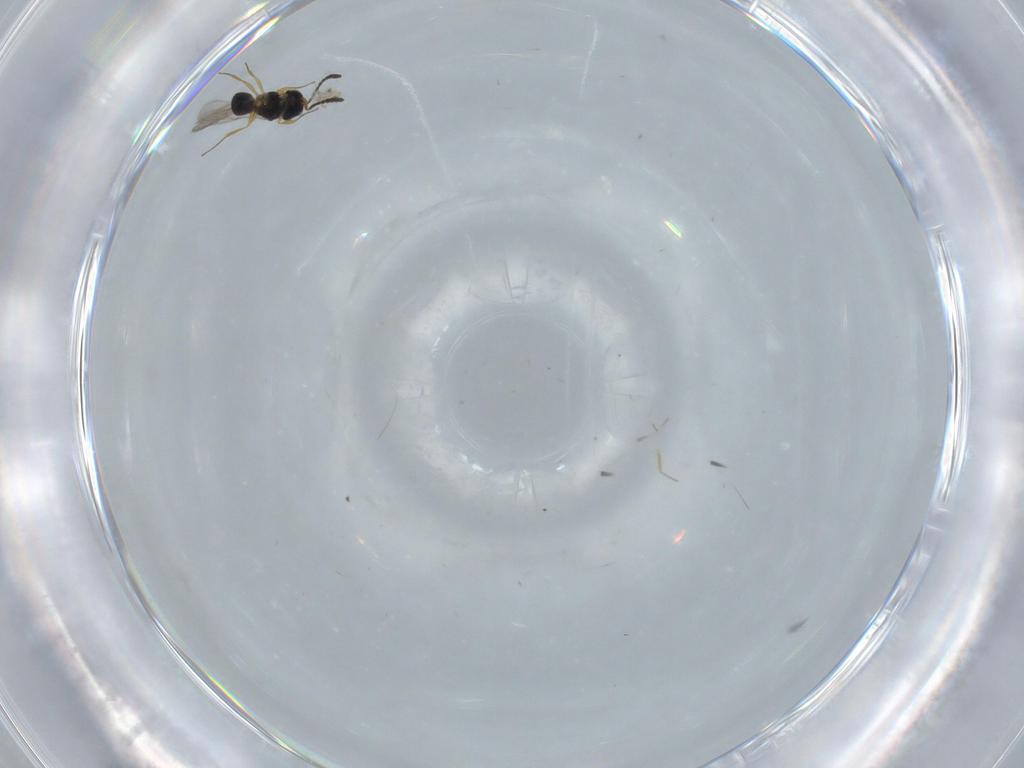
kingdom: Animalia
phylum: Arthropoda
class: Insecta
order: Hymenoptera
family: Scelionidae
